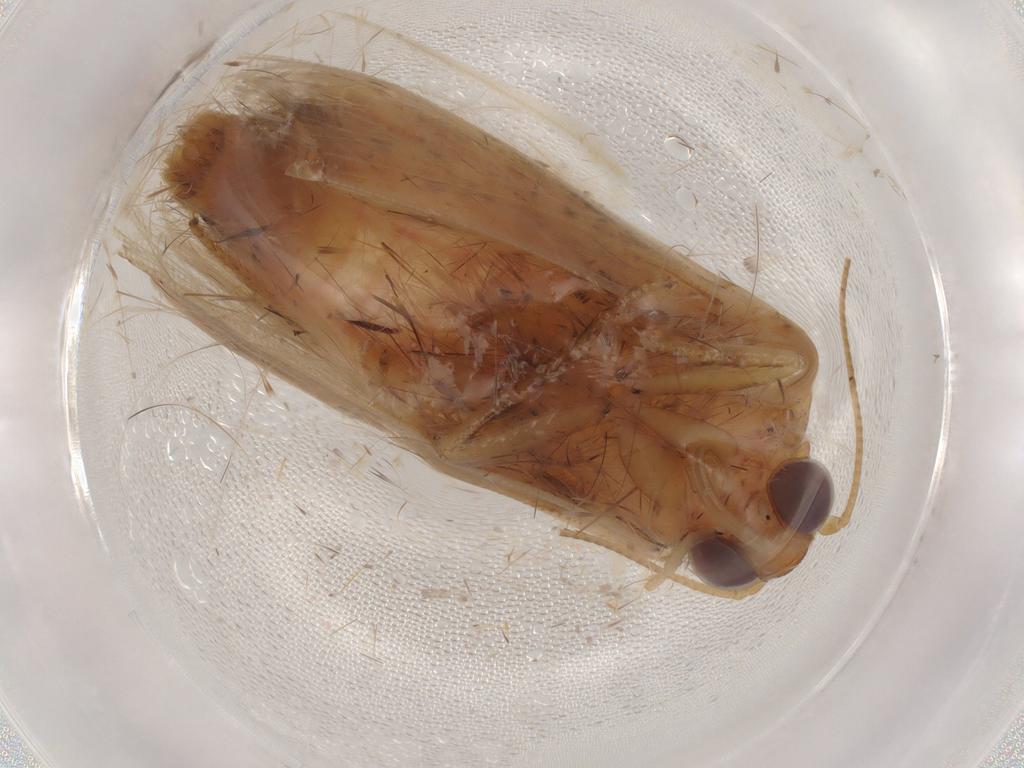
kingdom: Animalia
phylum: Arthropoda
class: Insecta
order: Lepidoptera
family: Noctuidae
